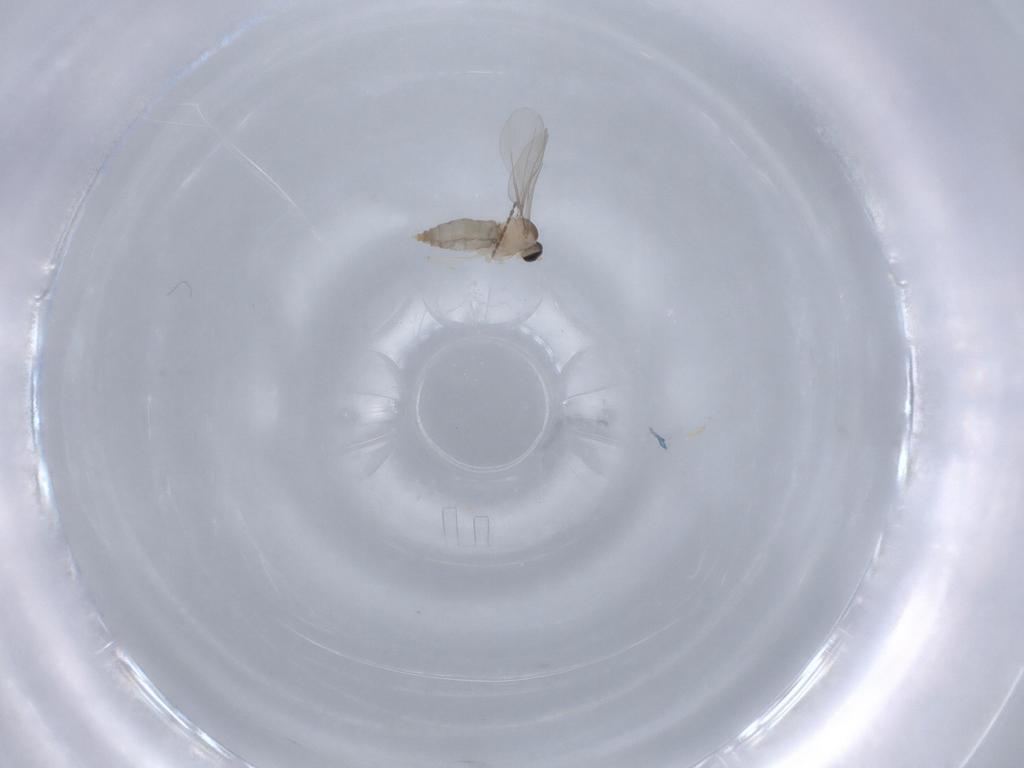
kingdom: Animalia
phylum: Arthropoda
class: Insecta
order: Diptera
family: Cecidomyiidae
